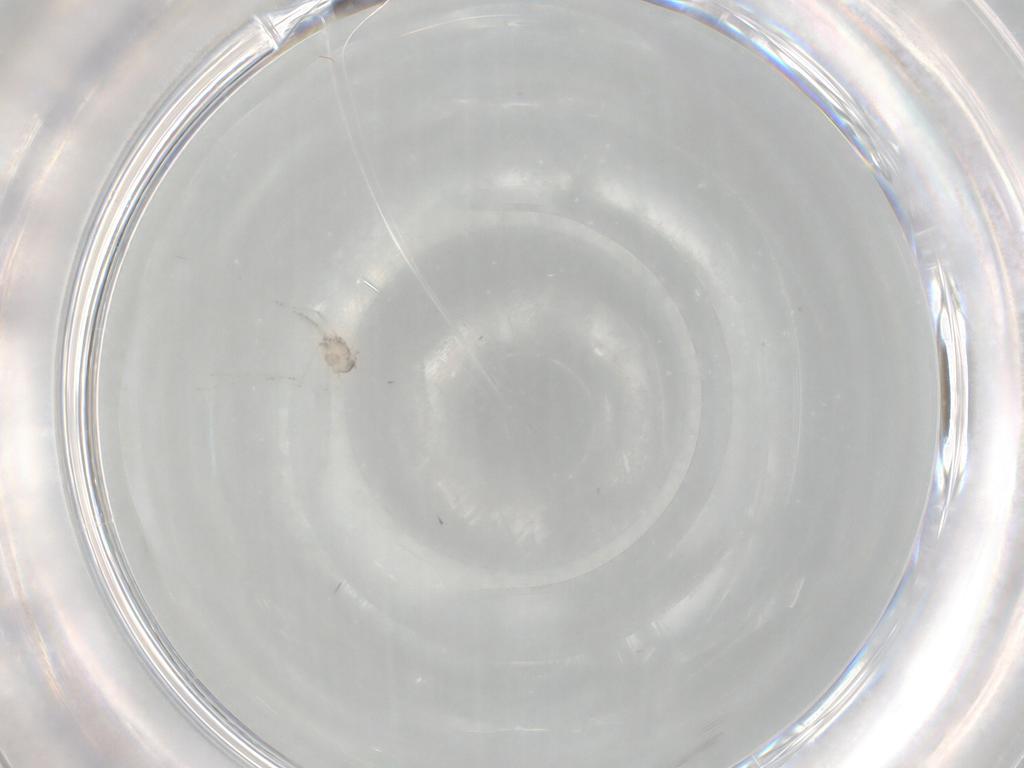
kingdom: Animalia
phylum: Arthropoda
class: Insecta
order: Diptera
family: Cecidomyiidae
